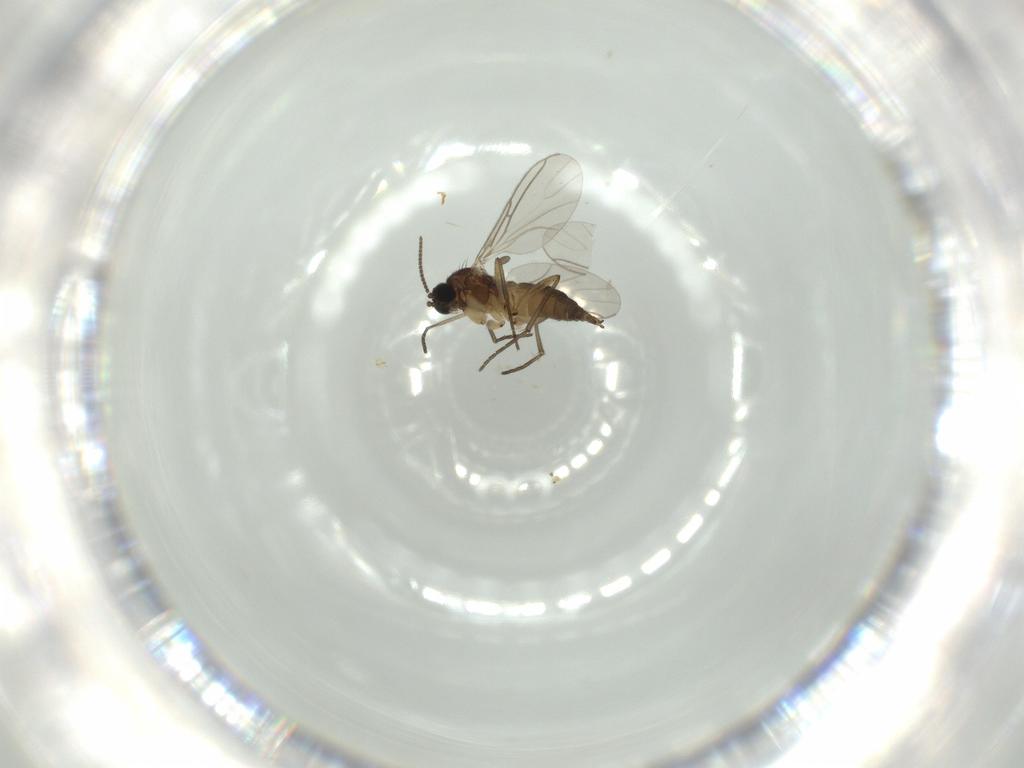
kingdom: Animalia
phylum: Arthropoda
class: Insecta
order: Diptera
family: Sciaridae
